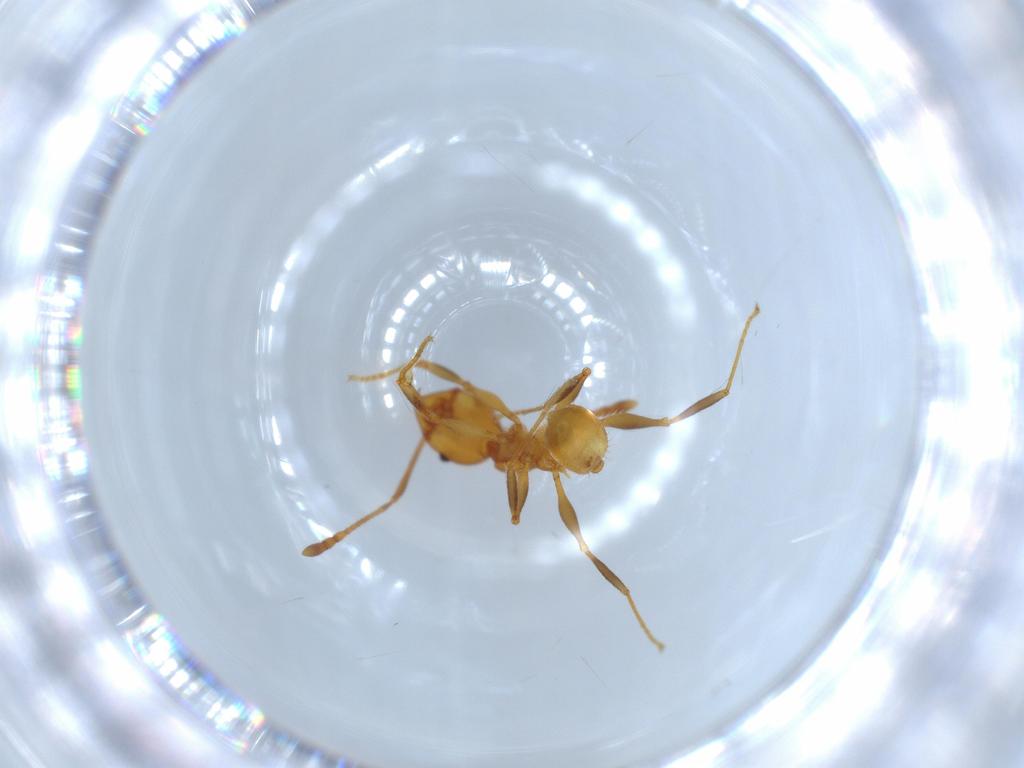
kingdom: Animalia
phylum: Arthropoda
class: Insecta
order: Hymenoptera
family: Formicidae
